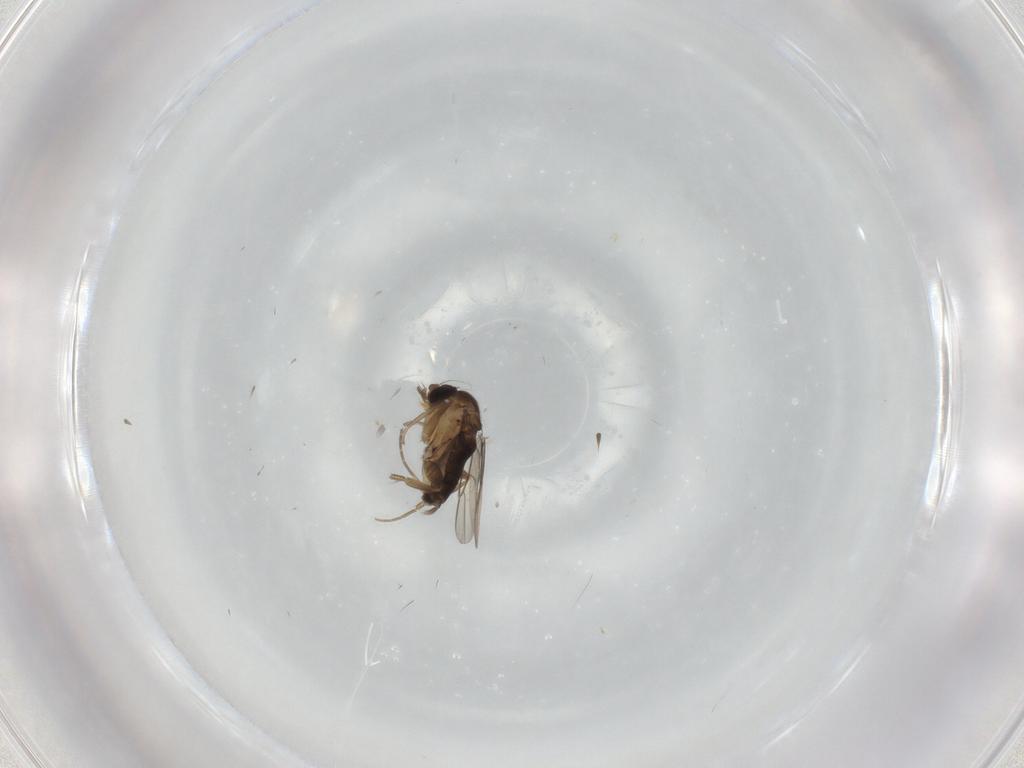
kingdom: Animalia
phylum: Arthropoda
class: Insecta
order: Diptera
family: Phoridae
